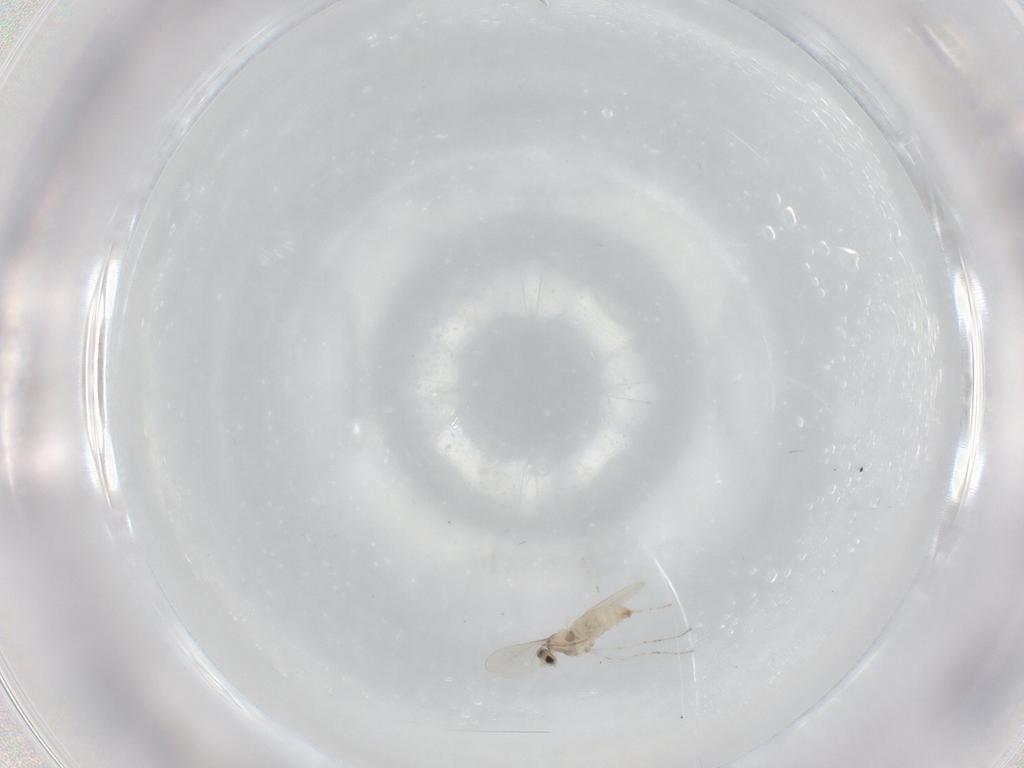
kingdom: Animalia
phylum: Arthropoda
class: Insecta
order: Diptera
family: Cecidomyiidae
